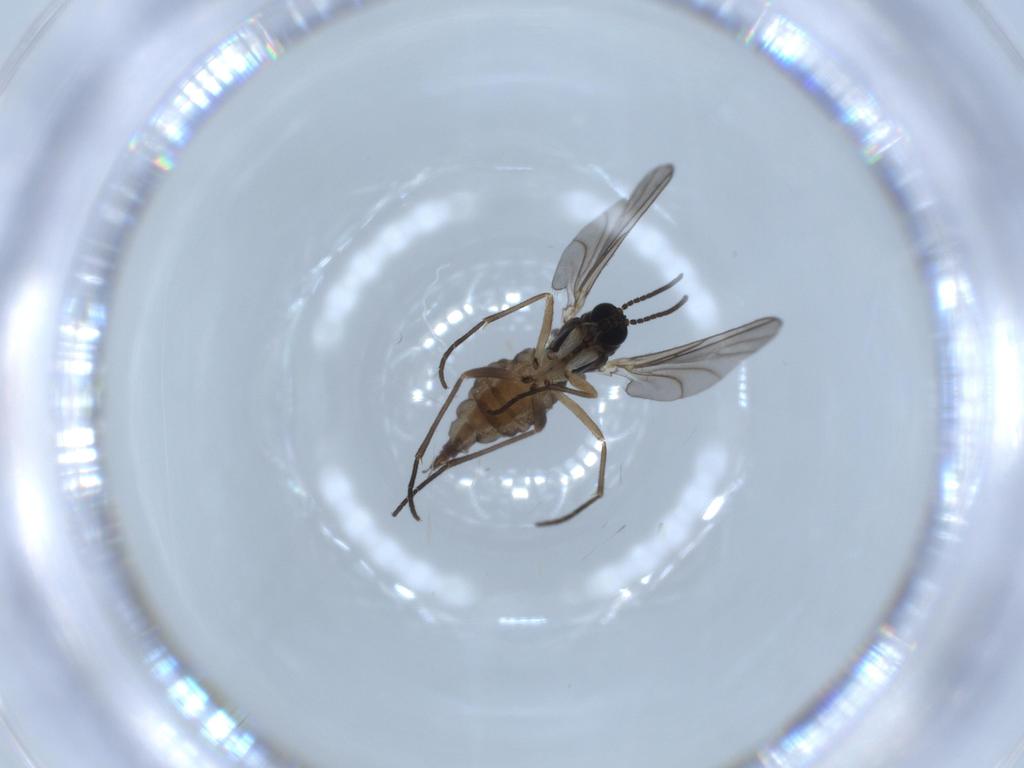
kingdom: Animalia
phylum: Arthropoda
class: Insecta
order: Diptera
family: Sciaridae
